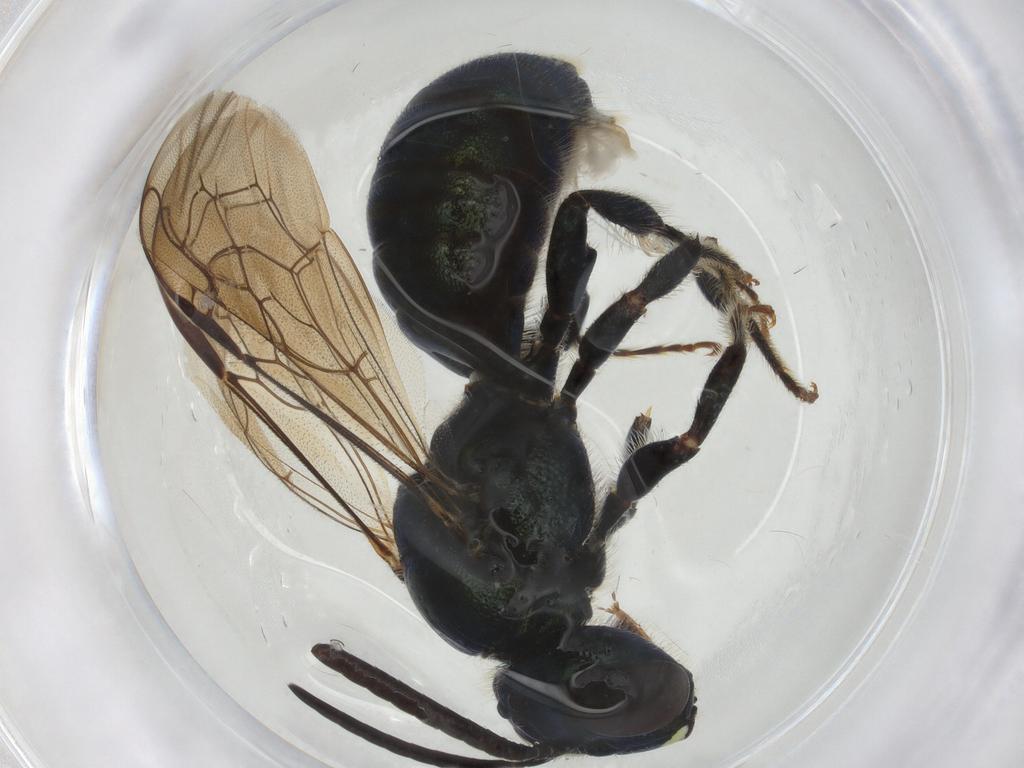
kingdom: Animalia
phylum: Arthropoda
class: Insecta
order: Hymenoptera
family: Apidae
